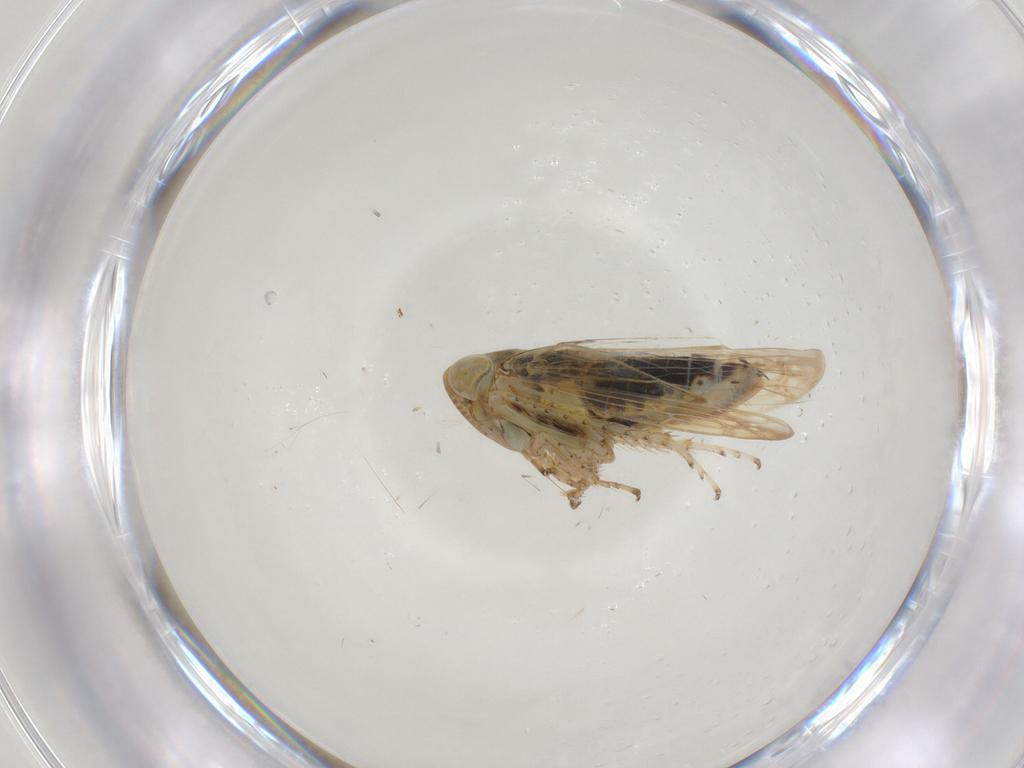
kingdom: Animalia
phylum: Arthropoda
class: Insecta
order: Hemiptera
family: Cicadellidae
